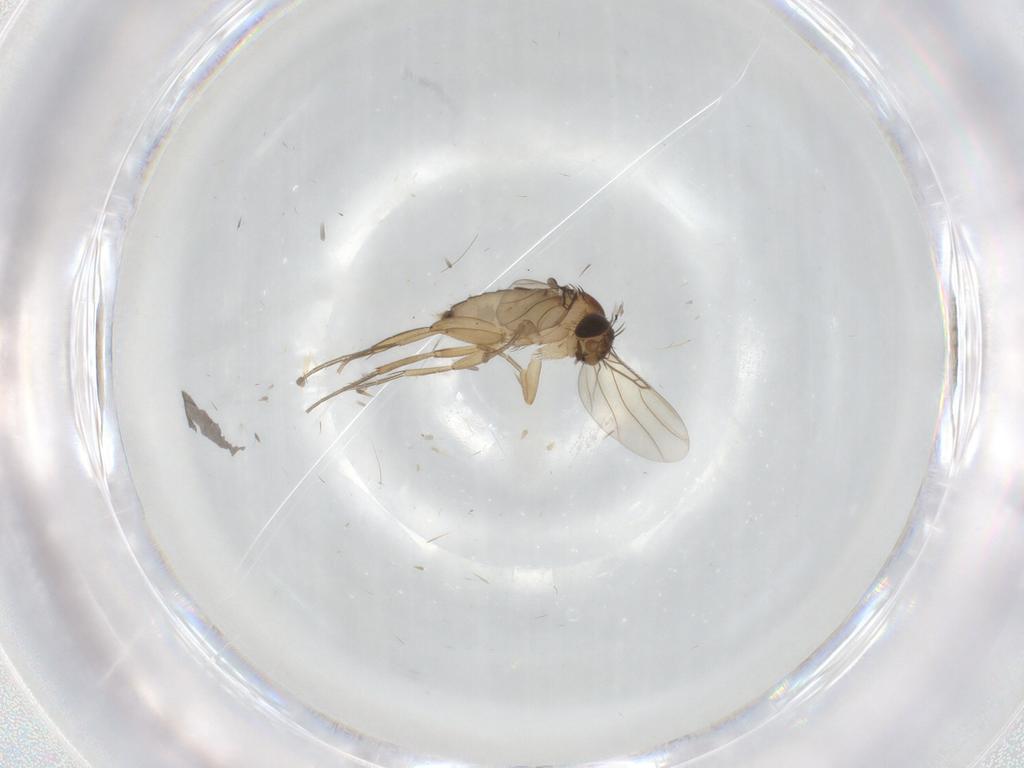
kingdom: Animalia
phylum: Arthropoda
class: Insecta
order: Diptera
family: Phoridae
